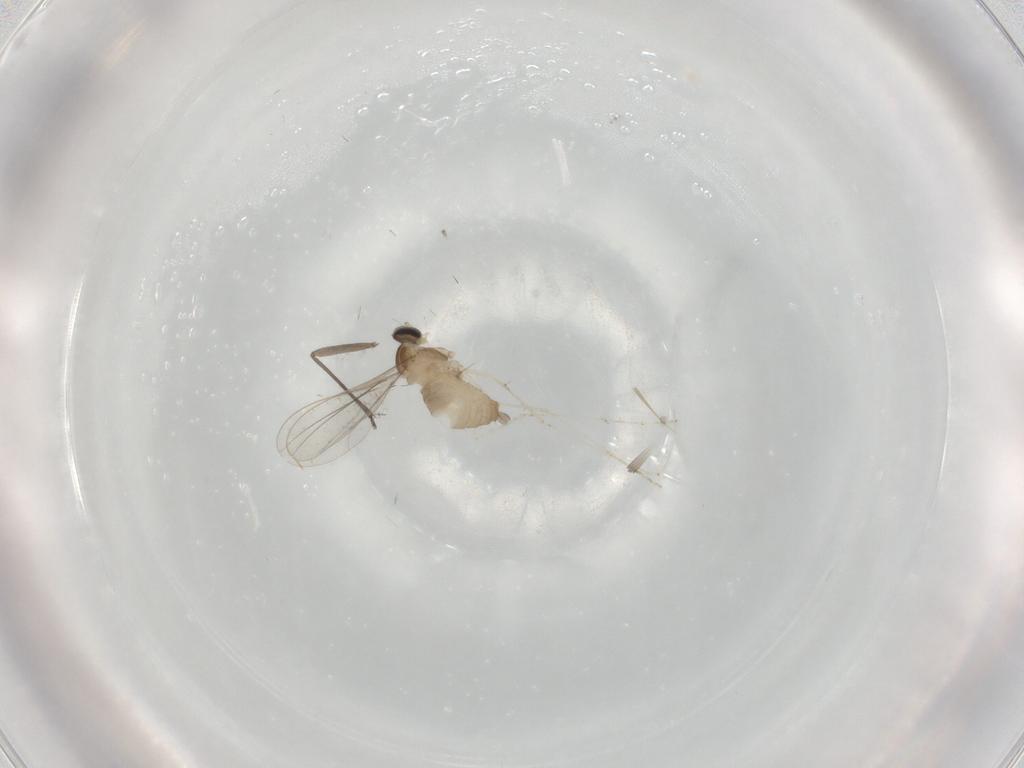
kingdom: Animalia
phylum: Arthropoda
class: Insecta
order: Diptera
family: Sciaridae
